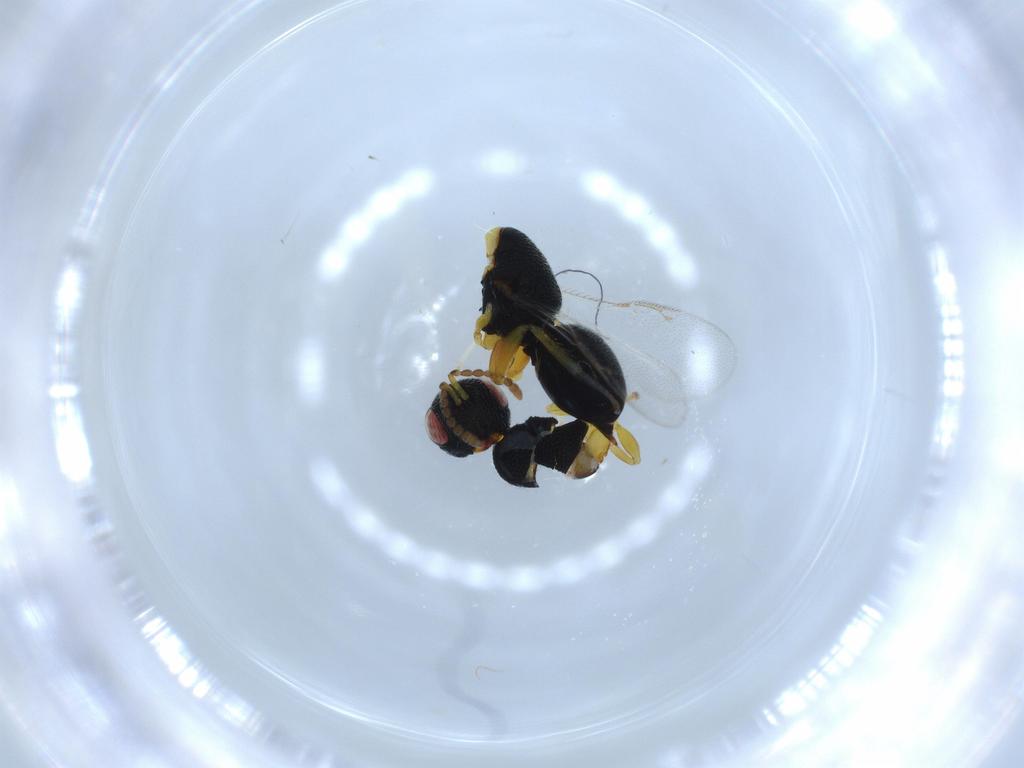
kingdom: Animalia
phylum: Arthropoda
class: Insecta
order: Hymenoptera
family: Eurytomidae
